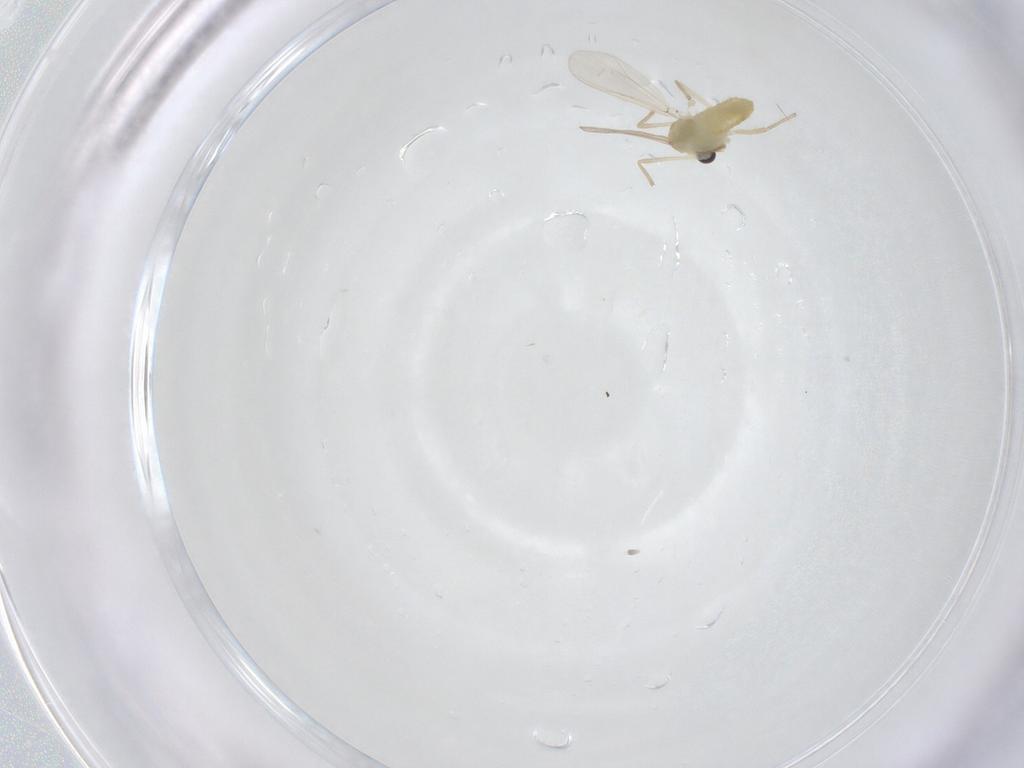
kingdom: Animalia
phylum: Arthropoda
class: Insecta
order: Diptera
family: Chironomidae
